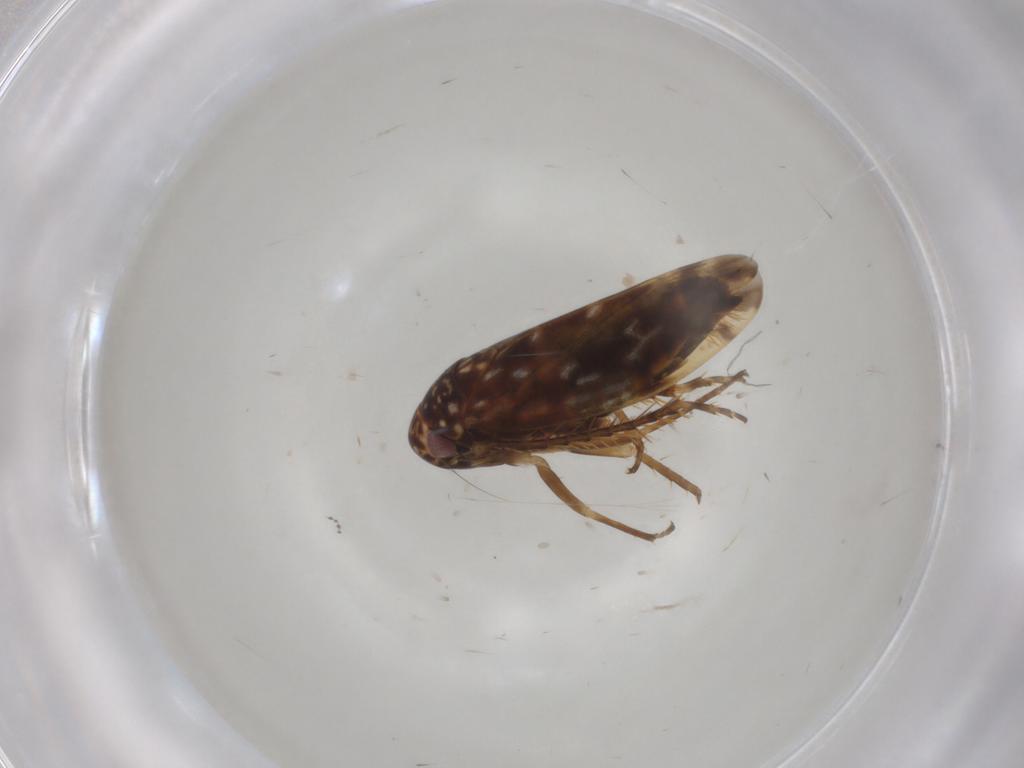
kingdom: Animalia
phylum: Arthropoda
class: Insecta
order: Hemiptera
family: Cicadellidae
